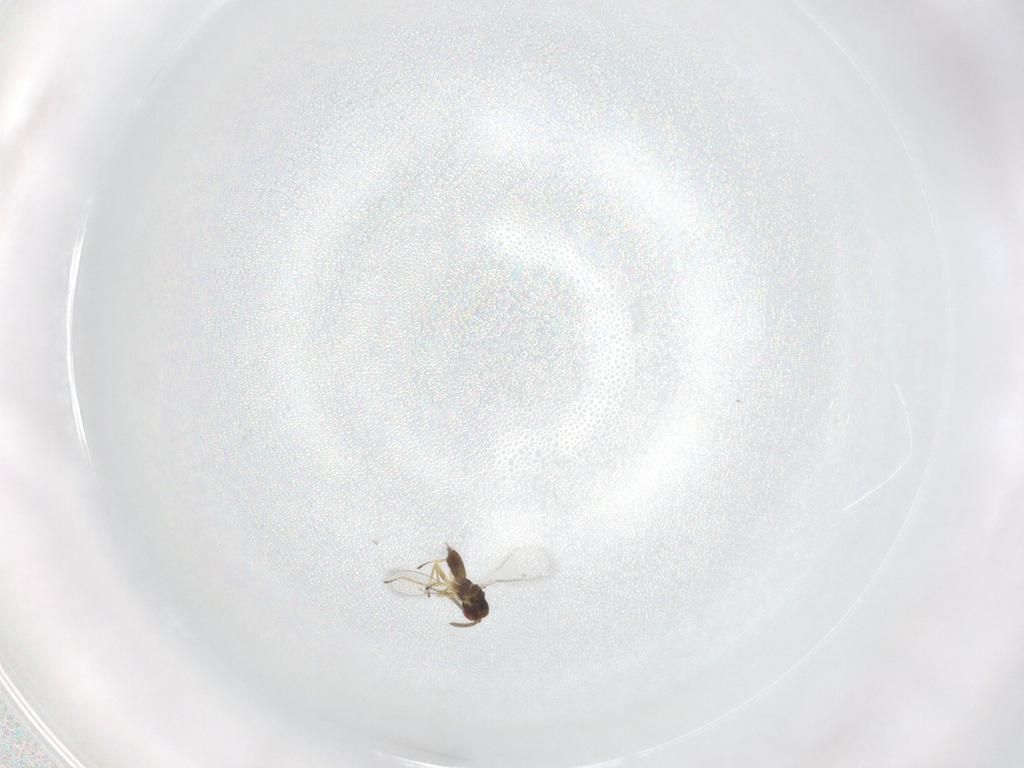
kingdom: Animalia
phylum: Arthropoda
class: Insecta
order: Hymenoptera
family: Eulophidae
